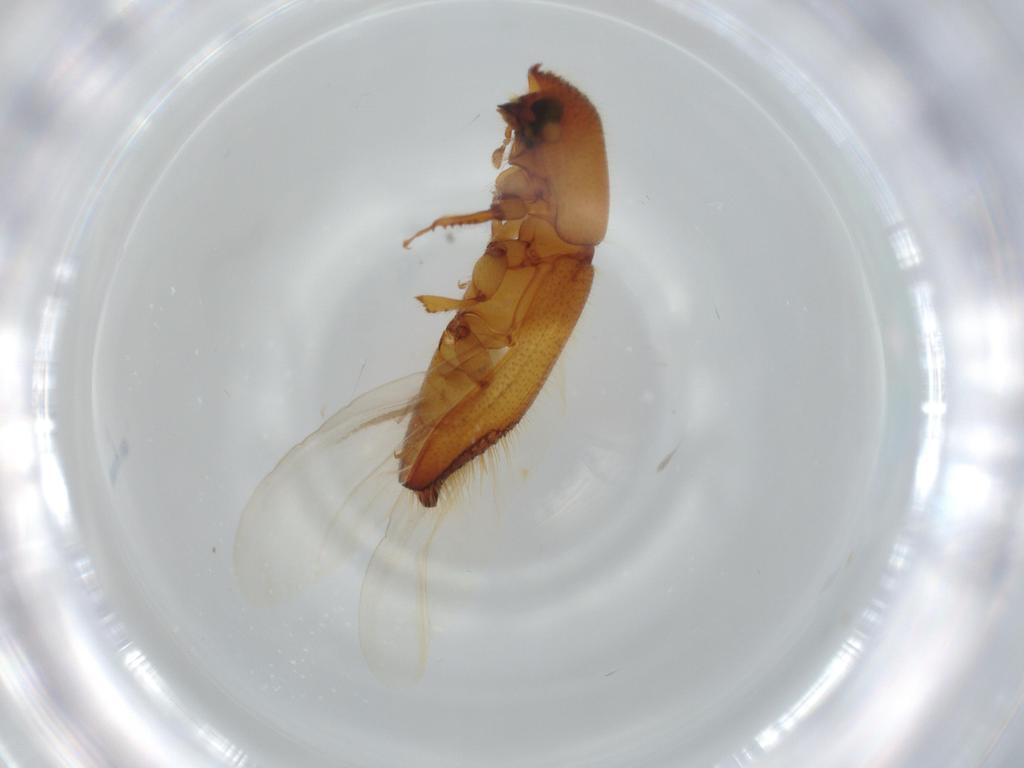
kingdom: Animalia
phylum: Arthropoda
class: Insecta
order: Coleoptera
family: Curculionidae
